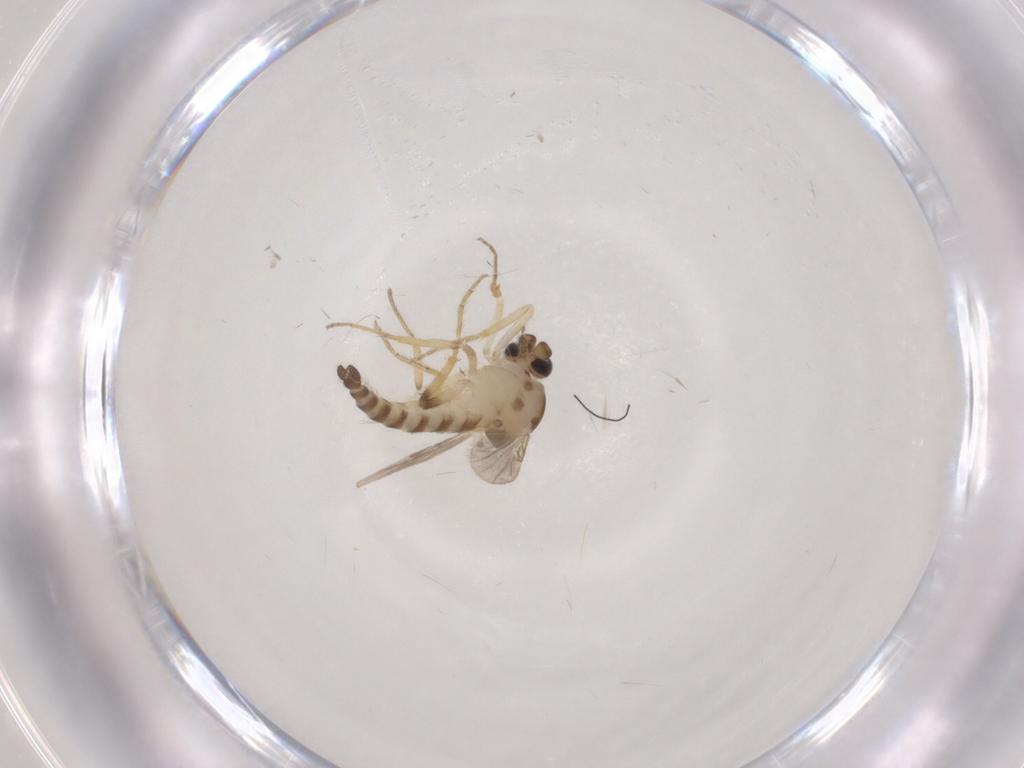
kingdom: Animalia
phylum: Arthropoda
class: Insecta
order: Diptera
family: Ceratopogonidae
